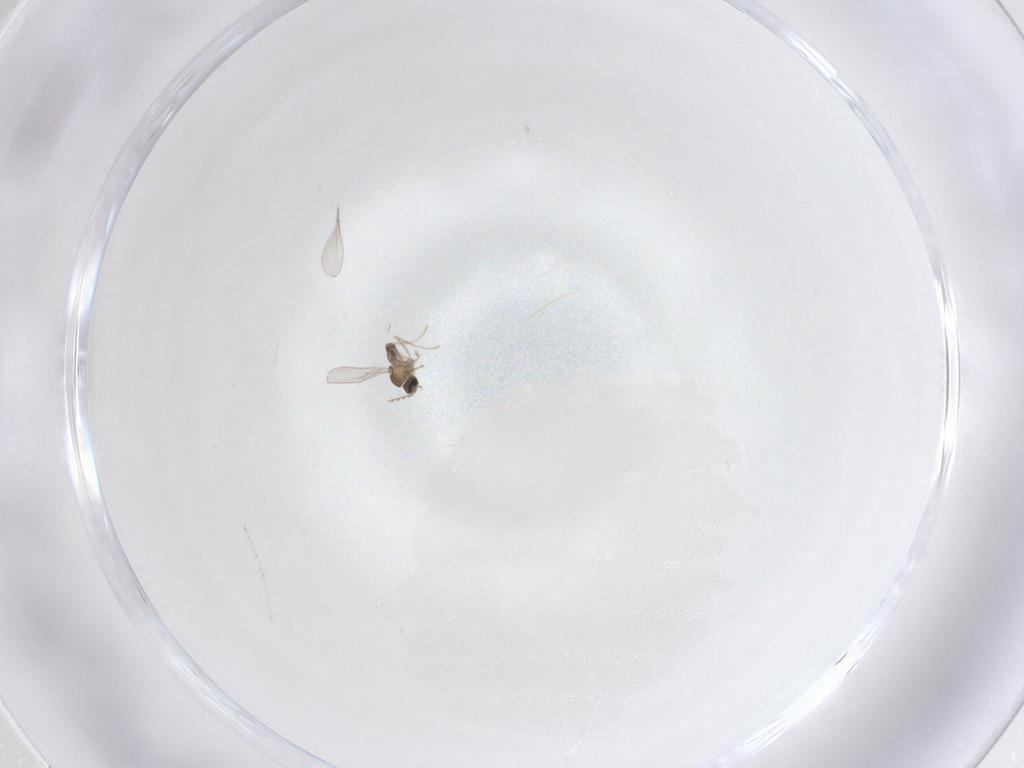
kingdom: Animalia
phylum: Arthropoda
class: Insecta
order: Diptera
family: Cecidomyiidae
